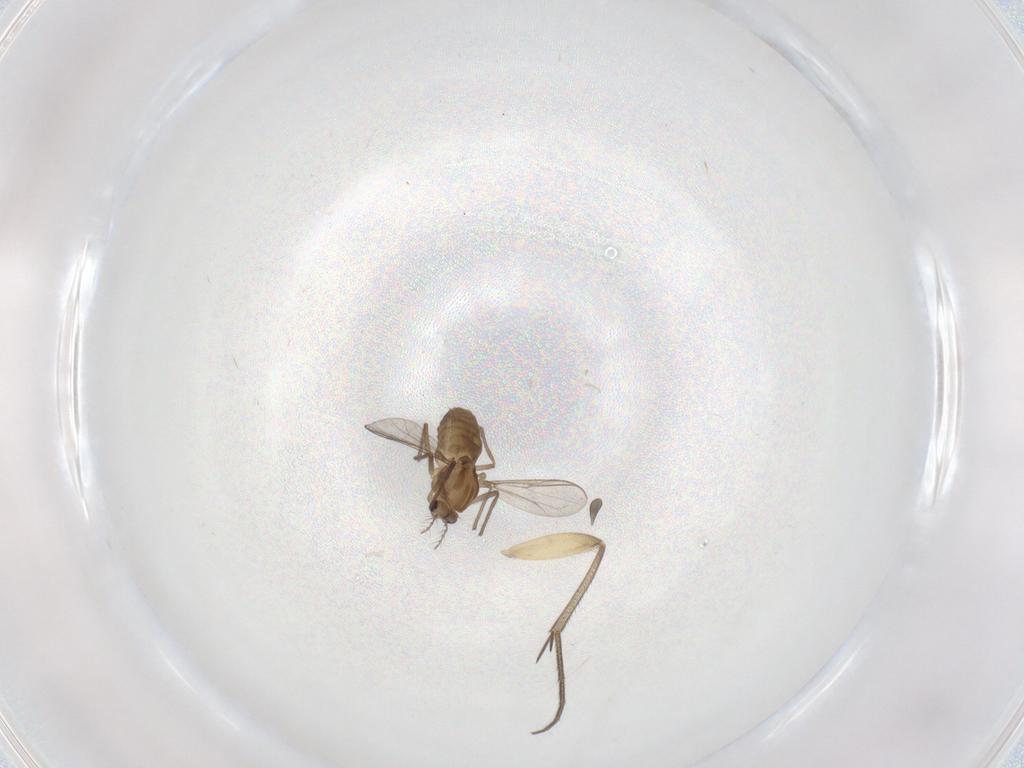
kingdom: Animalia
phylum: Arthropoda
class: Insecta
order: Diptera
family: Chironomidae
